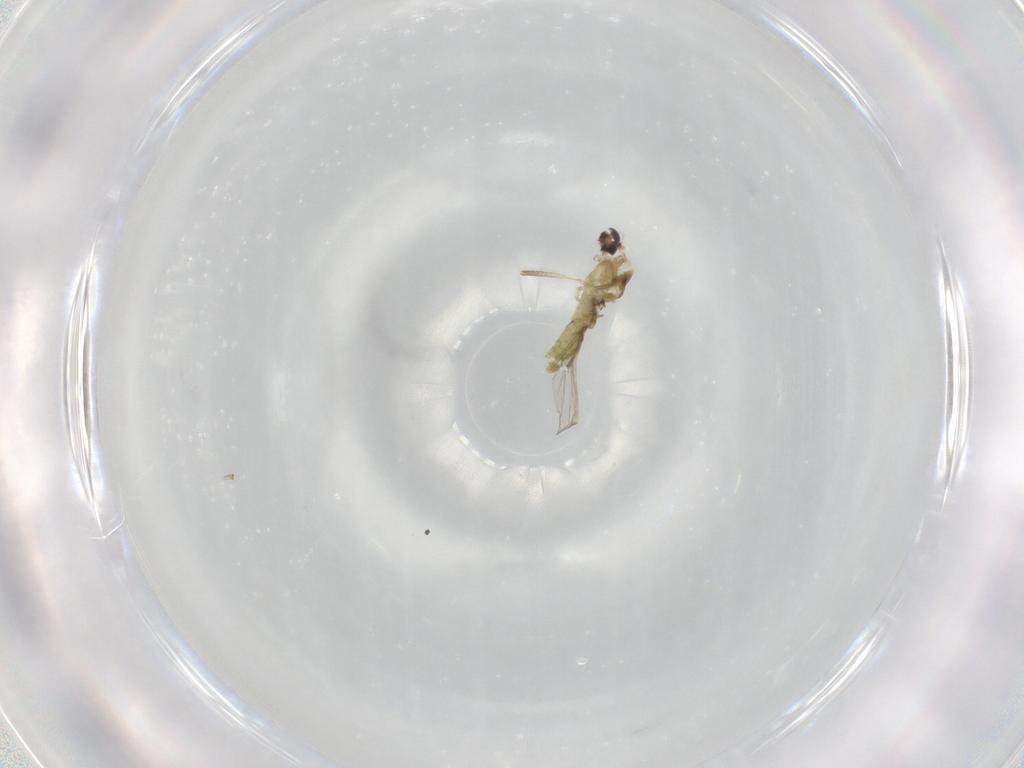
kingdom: Animalia
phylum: Arthropoda
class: Insecta
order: Diptera
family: Chironomidae
